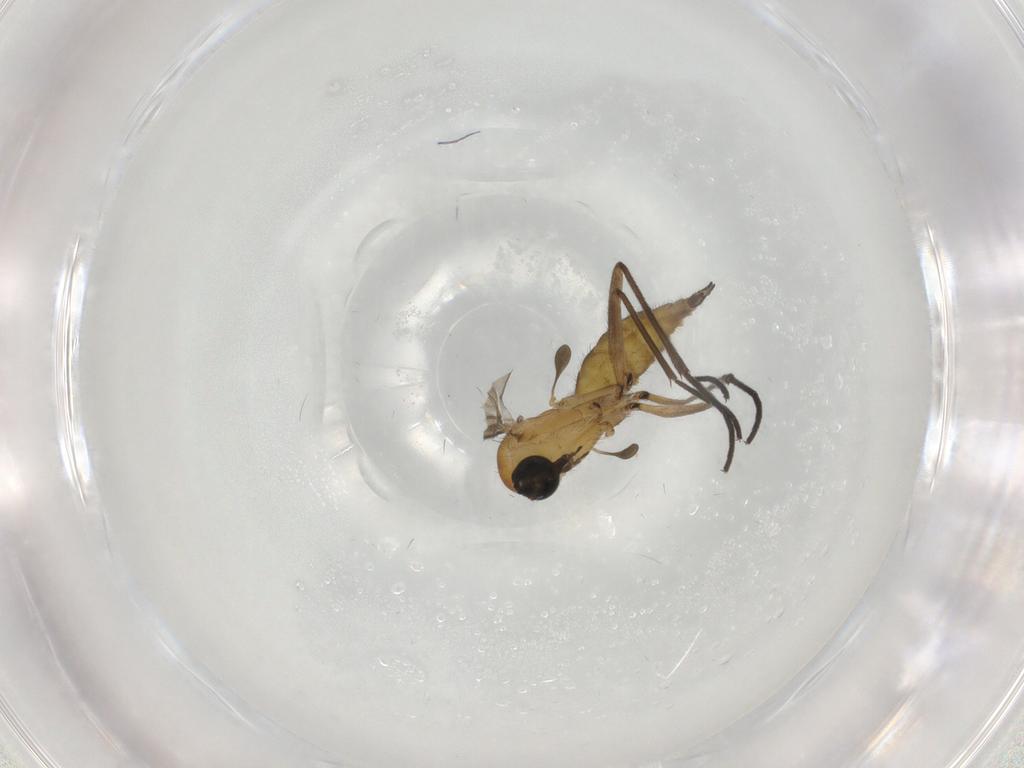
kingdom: Animalia
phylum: Arthropoda
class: Insecta
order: Diptera
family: Sciaridae
